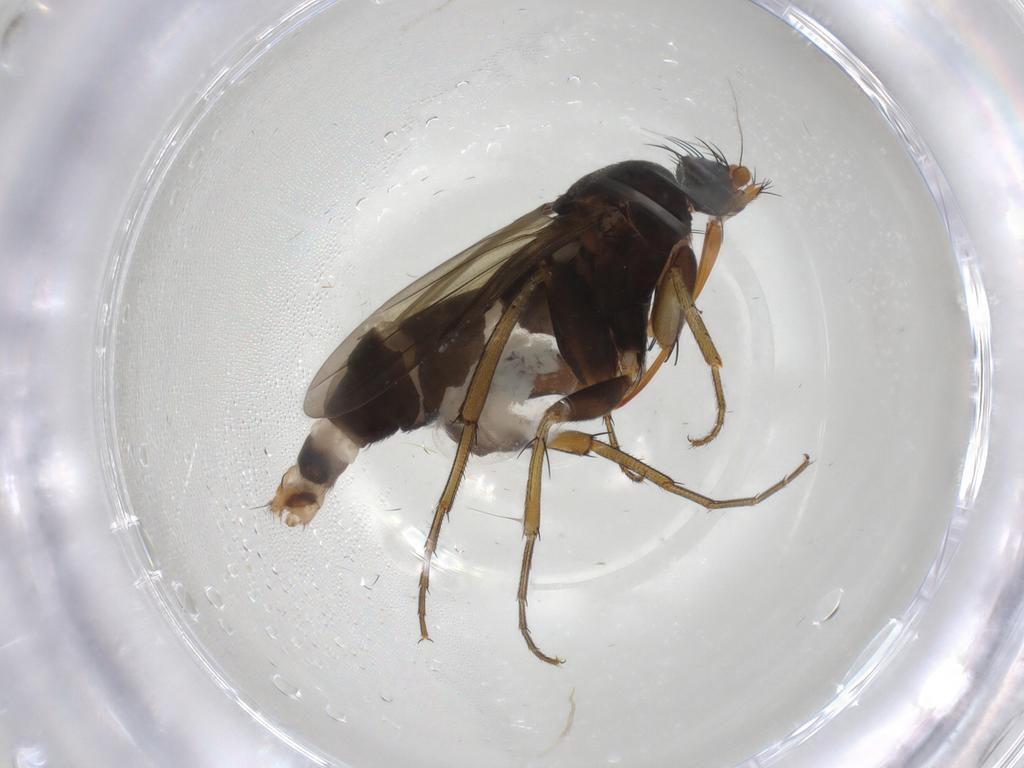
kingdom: Animalia
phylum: Arthropoda
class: Insecta
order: Diptera
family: Phoridae
